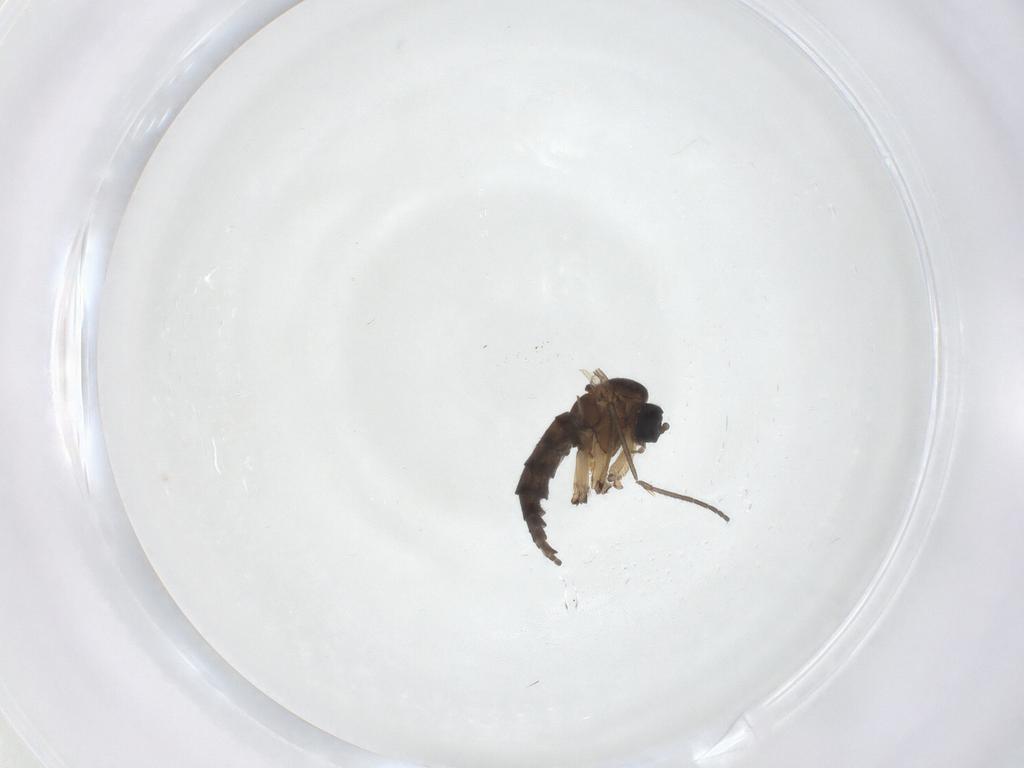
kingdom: Animalia
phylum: Arthropoda
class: Insecta
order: Diptera
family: Sciaridae
